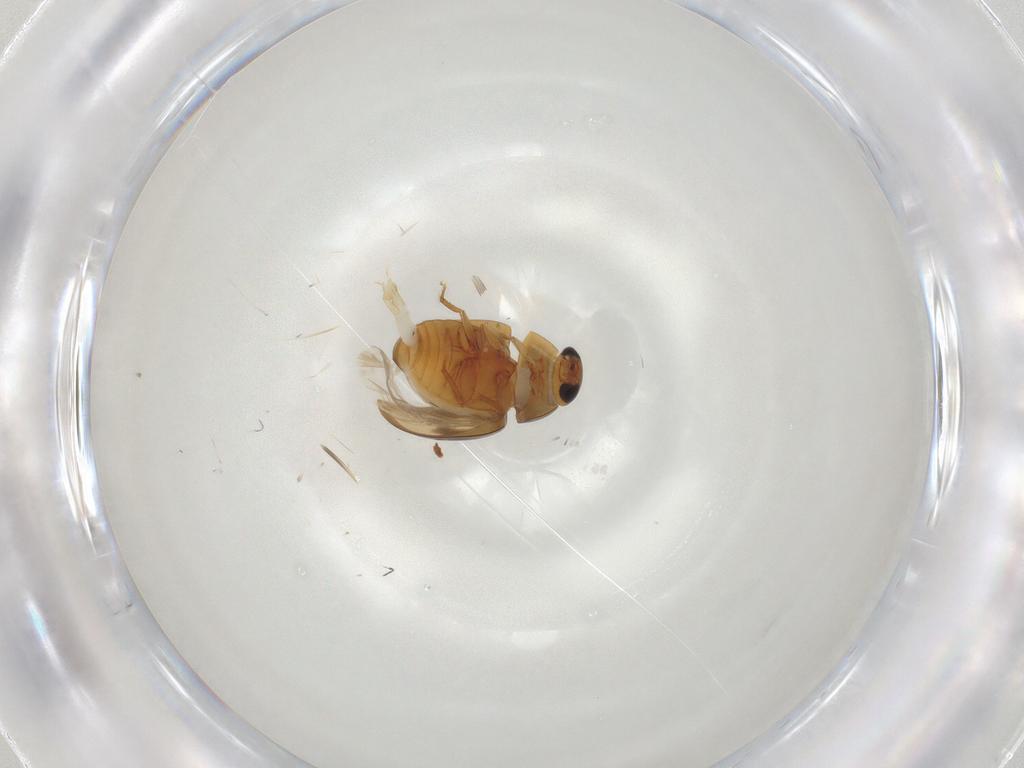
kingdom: Animalia
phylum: Arthropoda
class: Insecta
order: Coleoptera
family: Phalacridae
